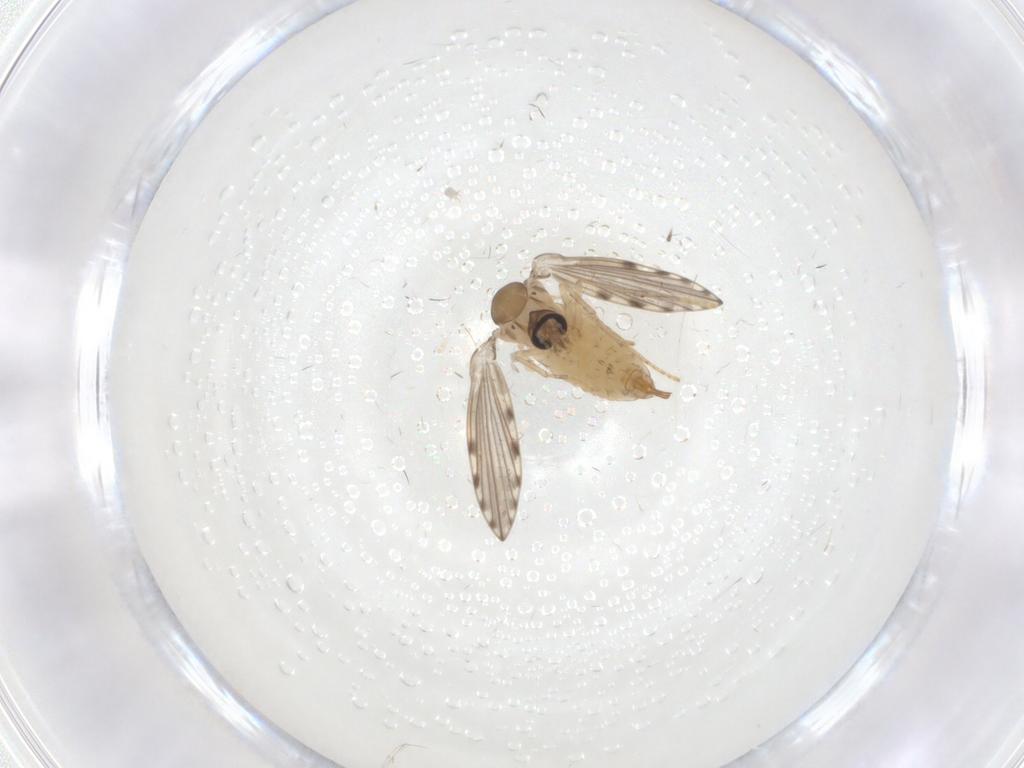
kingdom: Animalia
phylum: Arthropoda
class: Insecta
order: Diptera
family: Psychodidae
